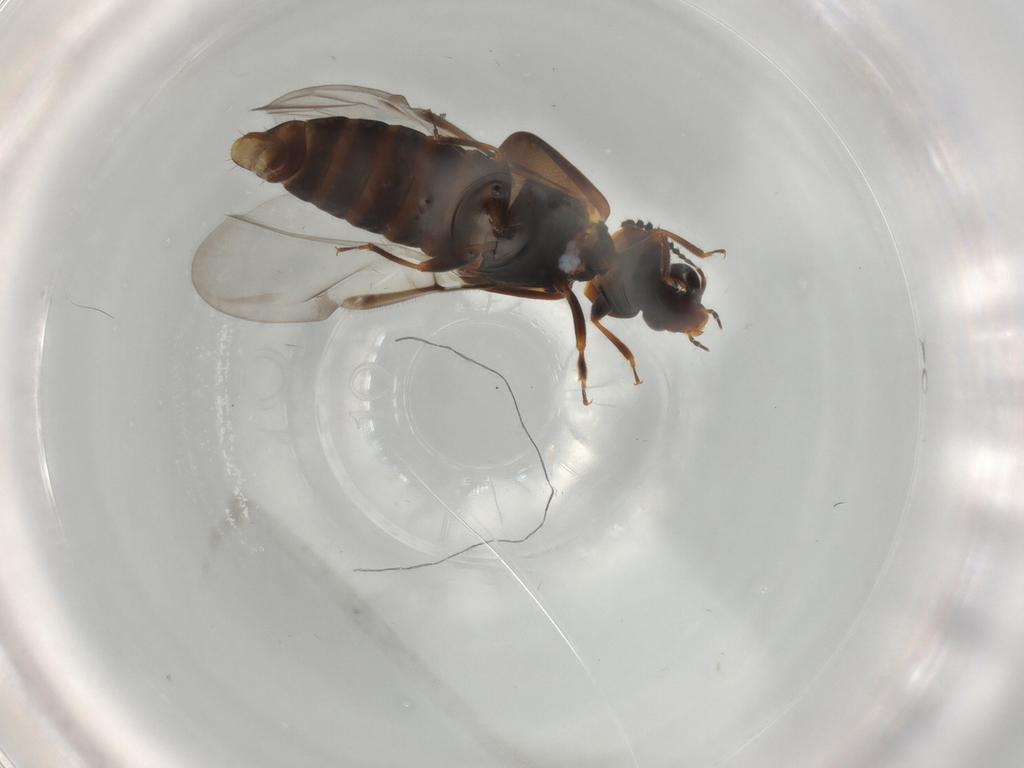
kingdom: Animalia
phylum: Arthropoda
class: Insecta
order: Coleoptera
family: Staphylinidae
